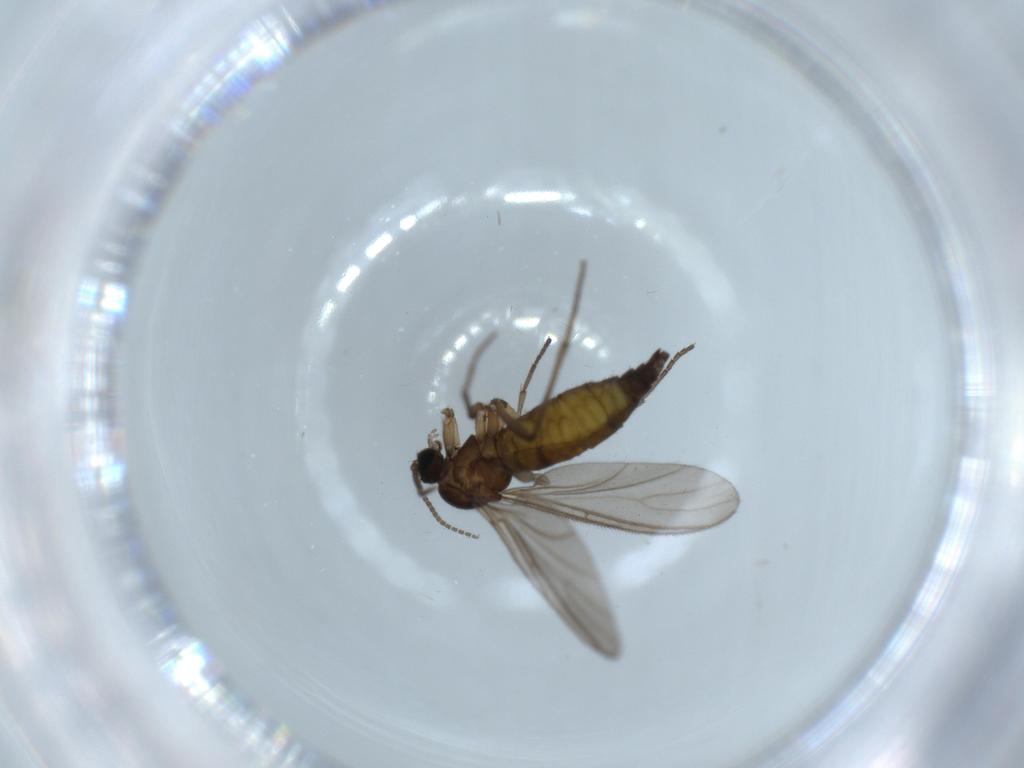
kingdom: Animalia
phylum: Arthropoda
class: Insecta
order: Diptera
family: Sciaridae
